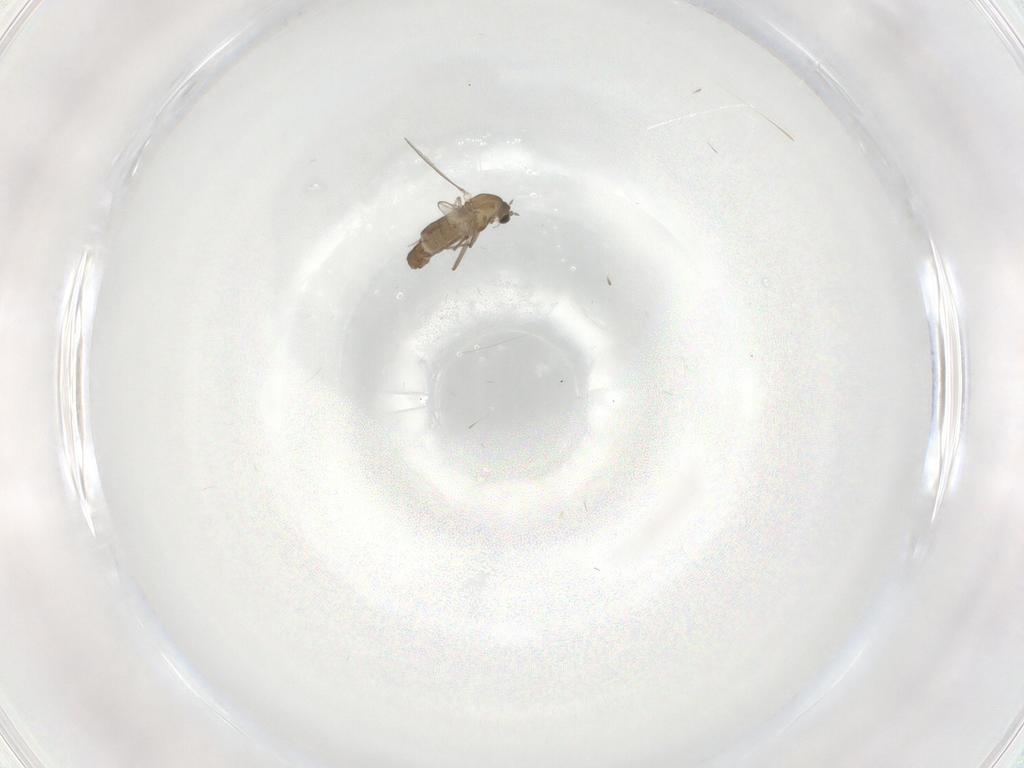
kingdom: Animalia
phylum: Arthropoda
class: Insecta
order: Diptera
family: Chironomidae
